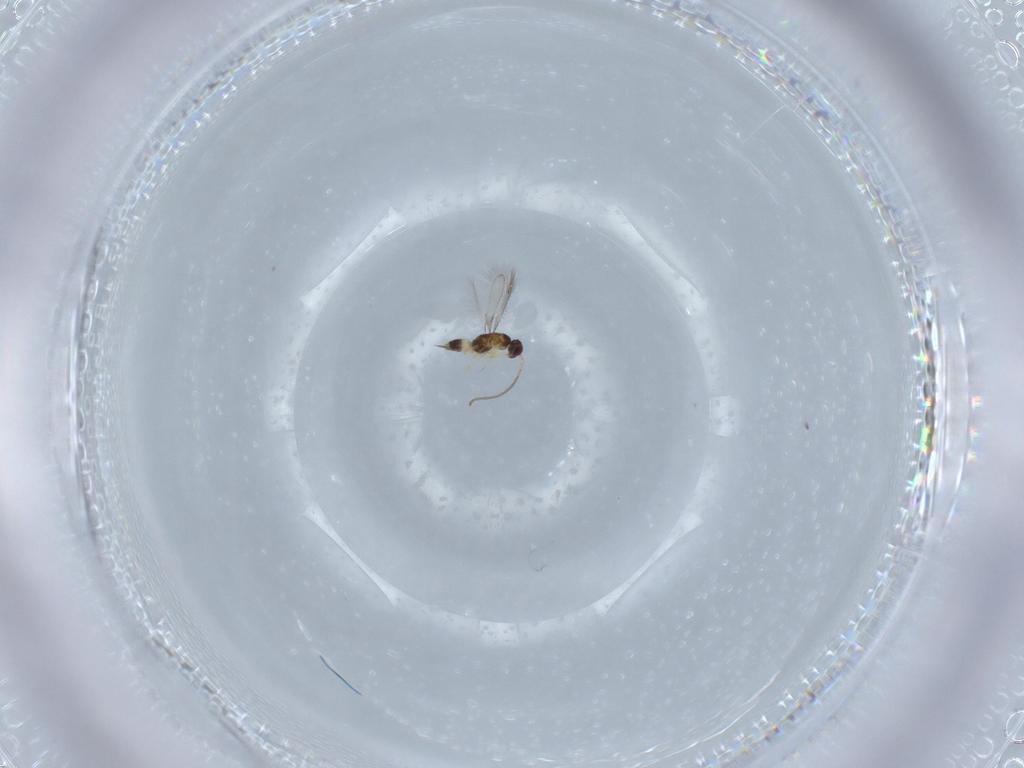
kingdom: Animalia
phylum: Arthropoda
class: Insecta
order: Hymenoptera
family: Mymaridae
